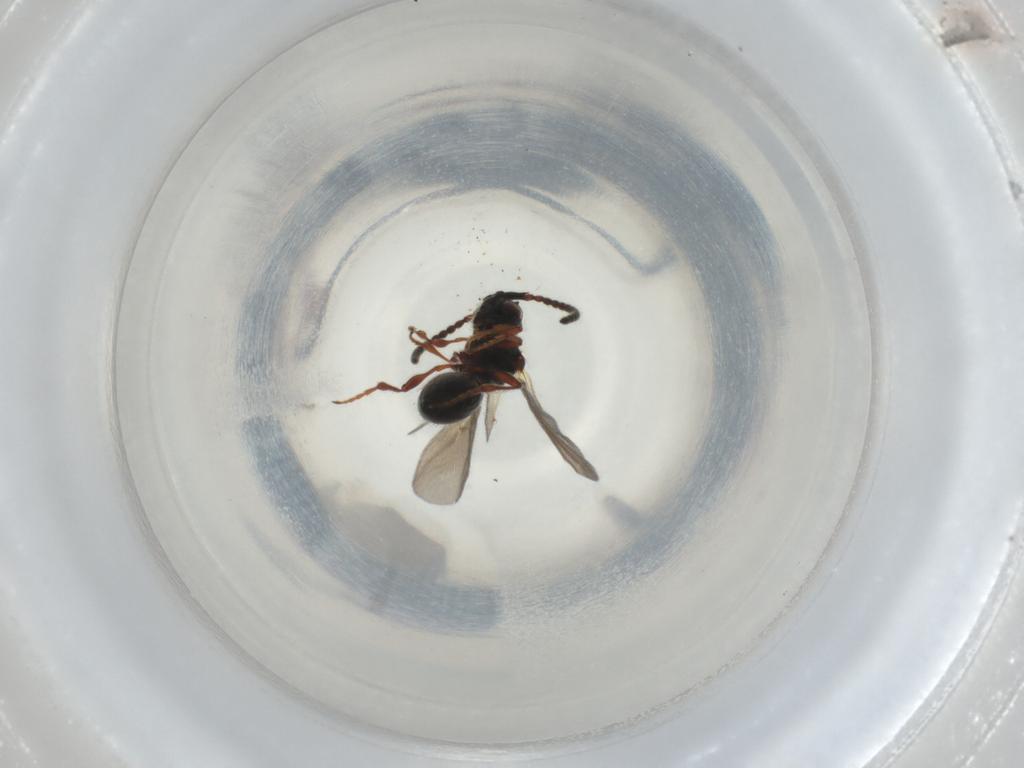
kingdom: Animalia
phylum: Arthropoda
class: Insecta
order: Hymenoptera
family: Diapriidae
